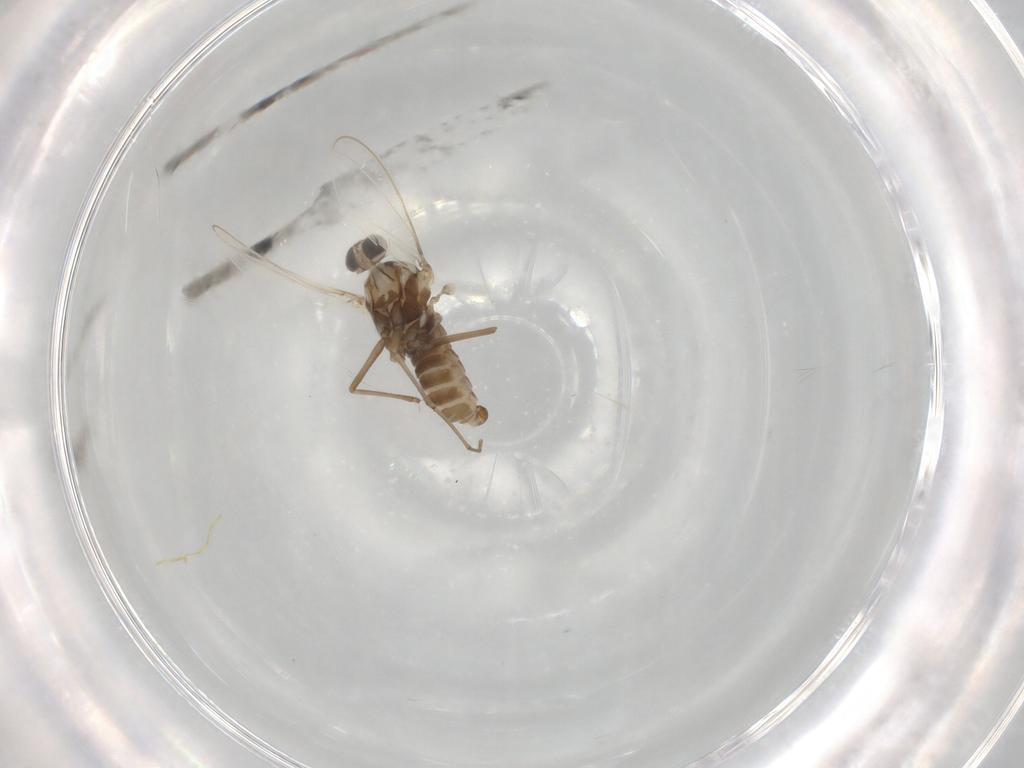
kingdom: Animalia
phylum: Arthropoda
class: Insecta
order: Diptera
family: Cecidomyiidae
